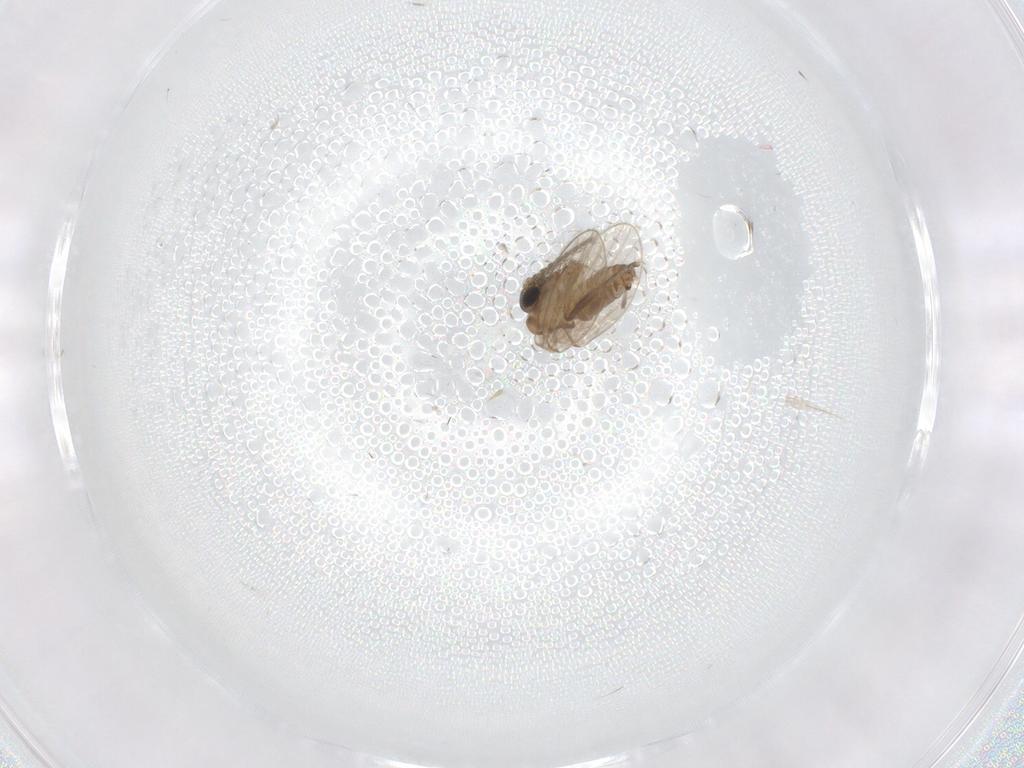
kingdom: Animalia
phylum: Arthropoda
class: Insecta
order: Diptera
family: Psychodidae
